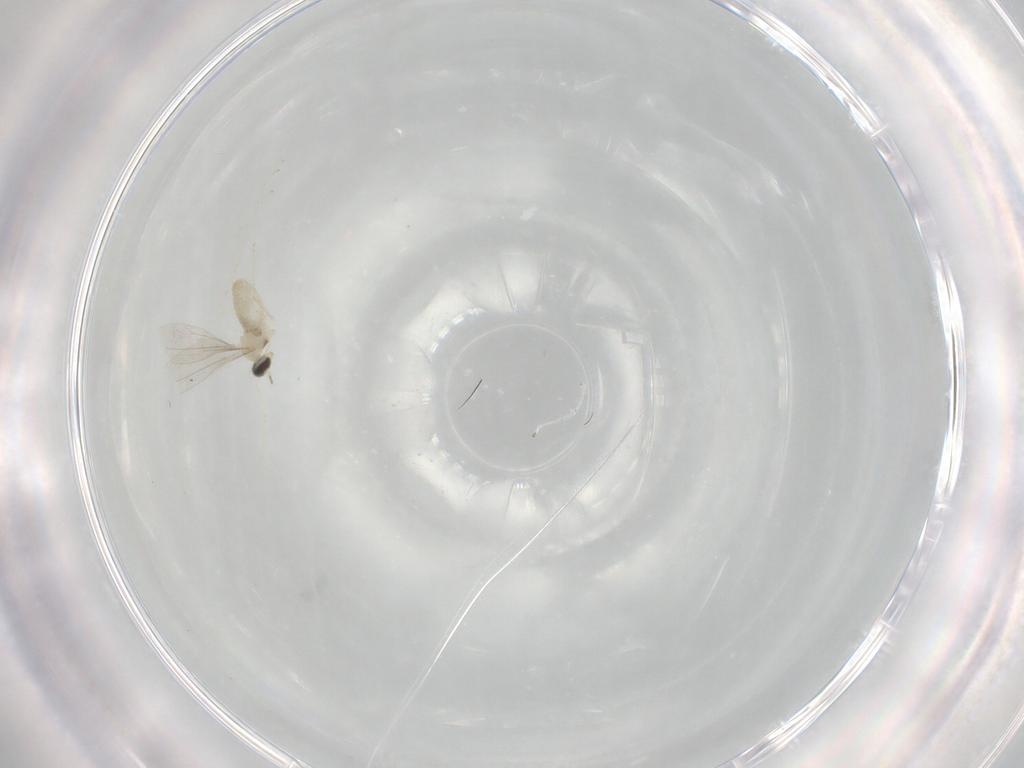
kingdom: Animalia
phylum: Arthropoda
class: Insecta
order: Diptera
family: Cecidomyiidae
